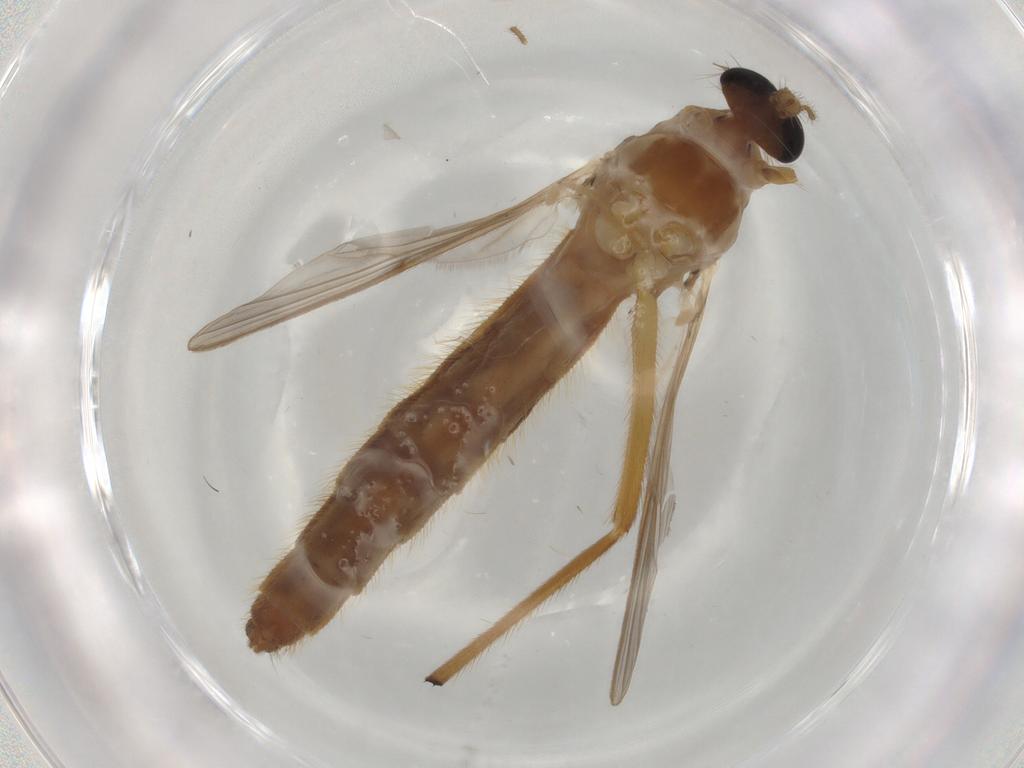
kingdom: Animalia
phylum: Arthropoda
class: Insecta
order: Diptera
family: Chironomidae
